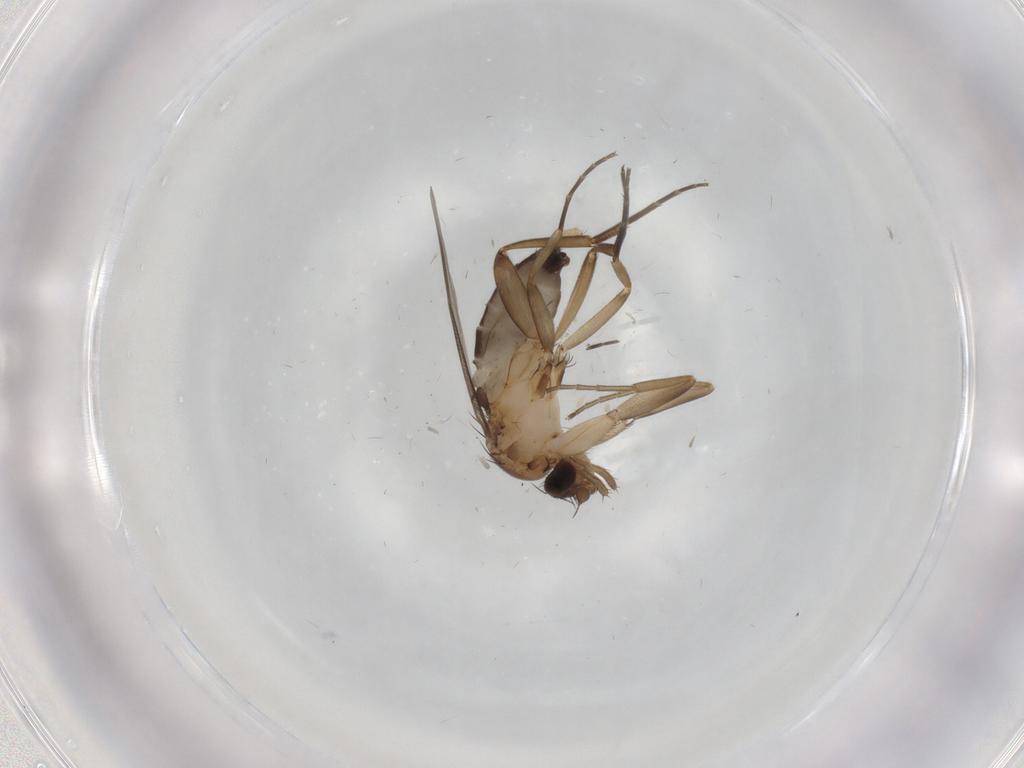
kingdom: Animalia
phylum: Arthropoda
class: Insecta
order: Diptera
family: Phoridae
